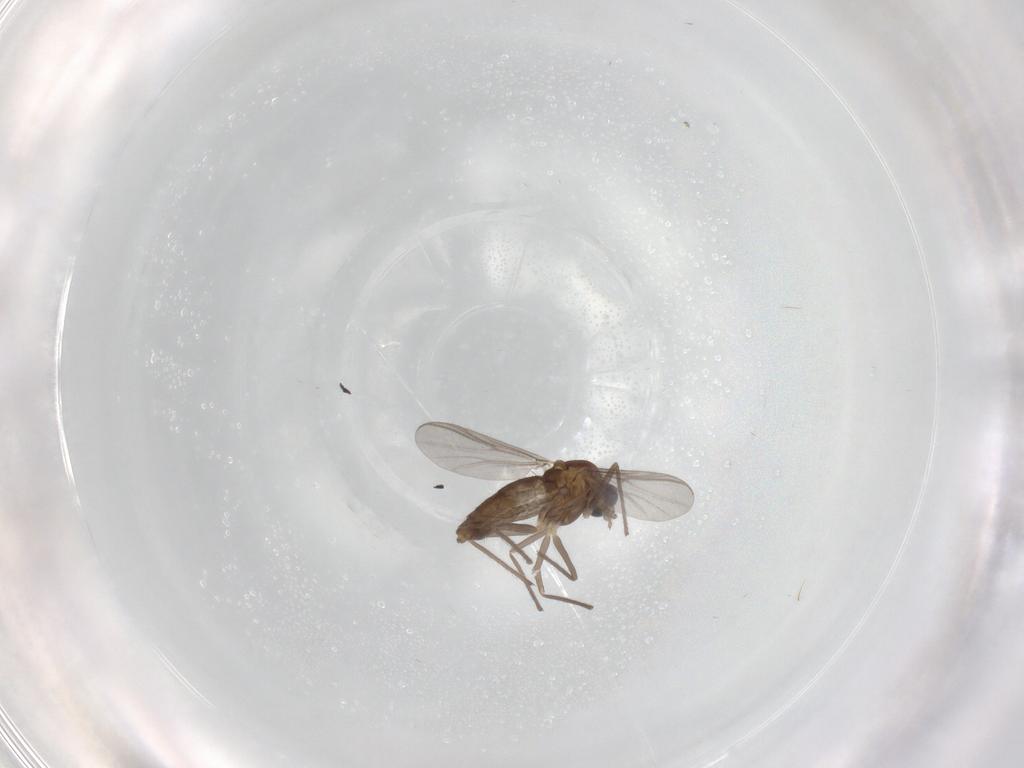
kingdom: Animalia
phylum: Arthropoda
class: Insecta
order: Diptera
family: Chironomidae
